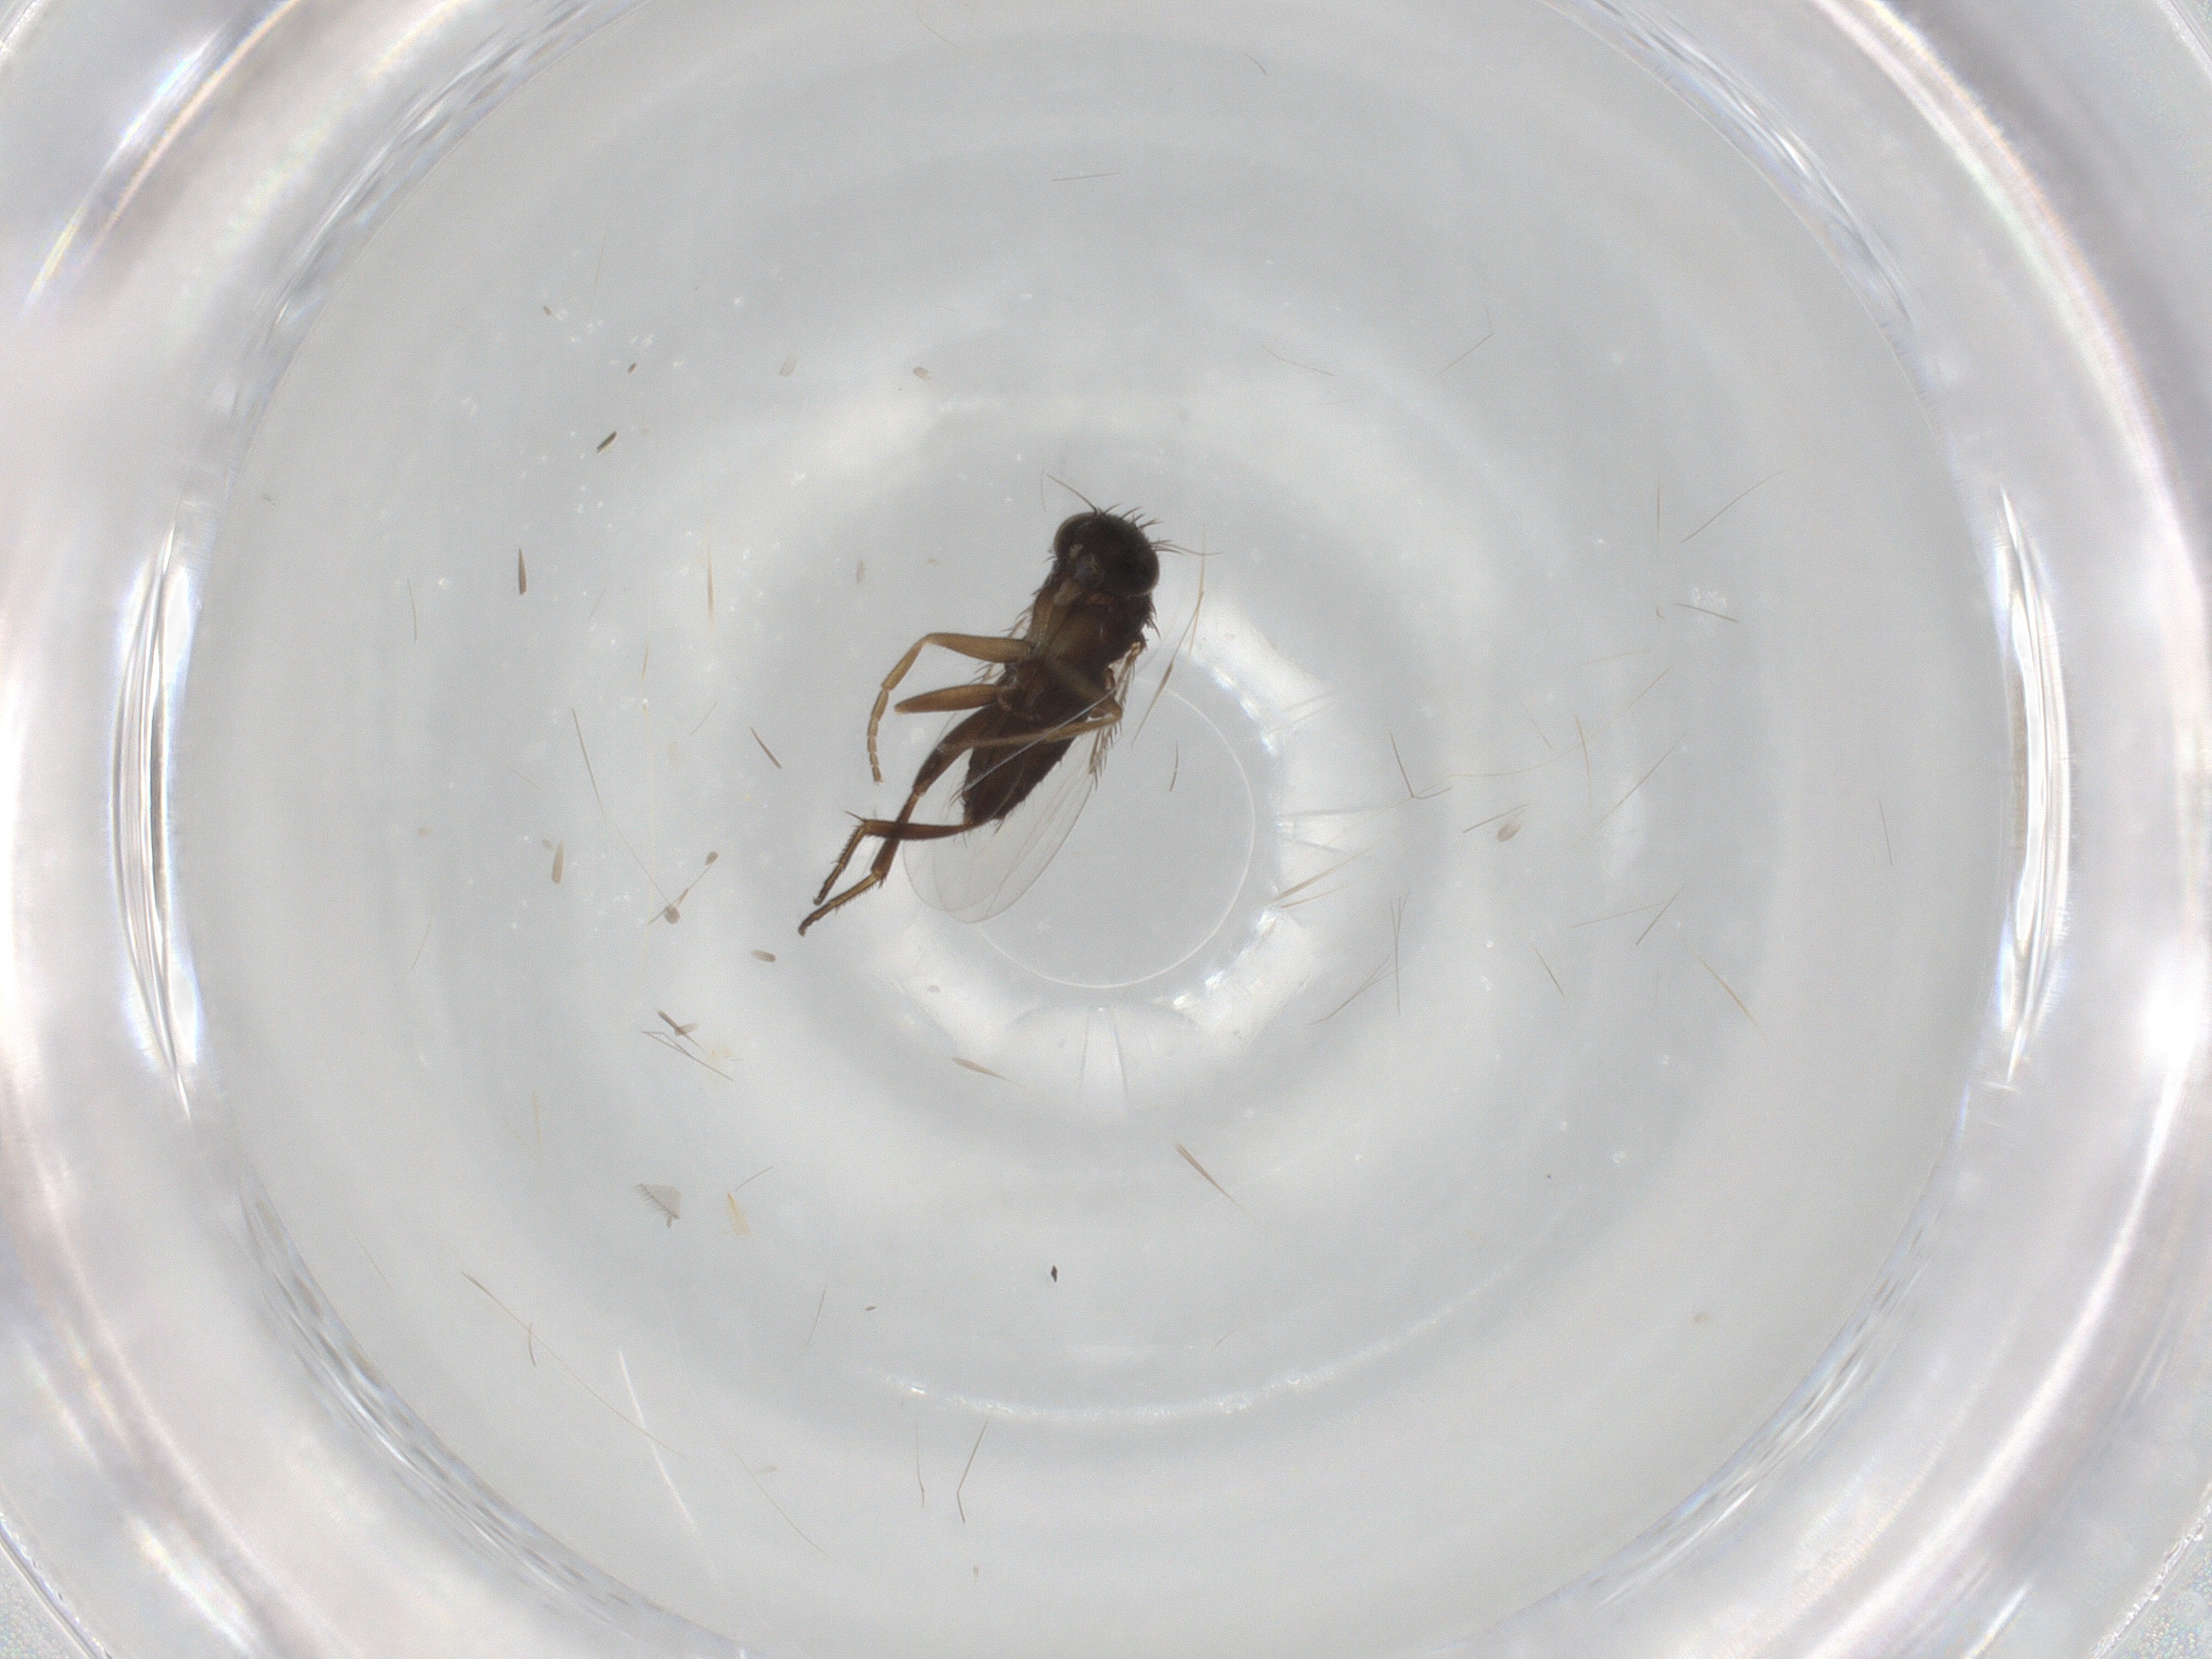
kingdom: Animalia
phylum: Arthropoda
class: Insecta
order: Diptera
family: Phoridae
